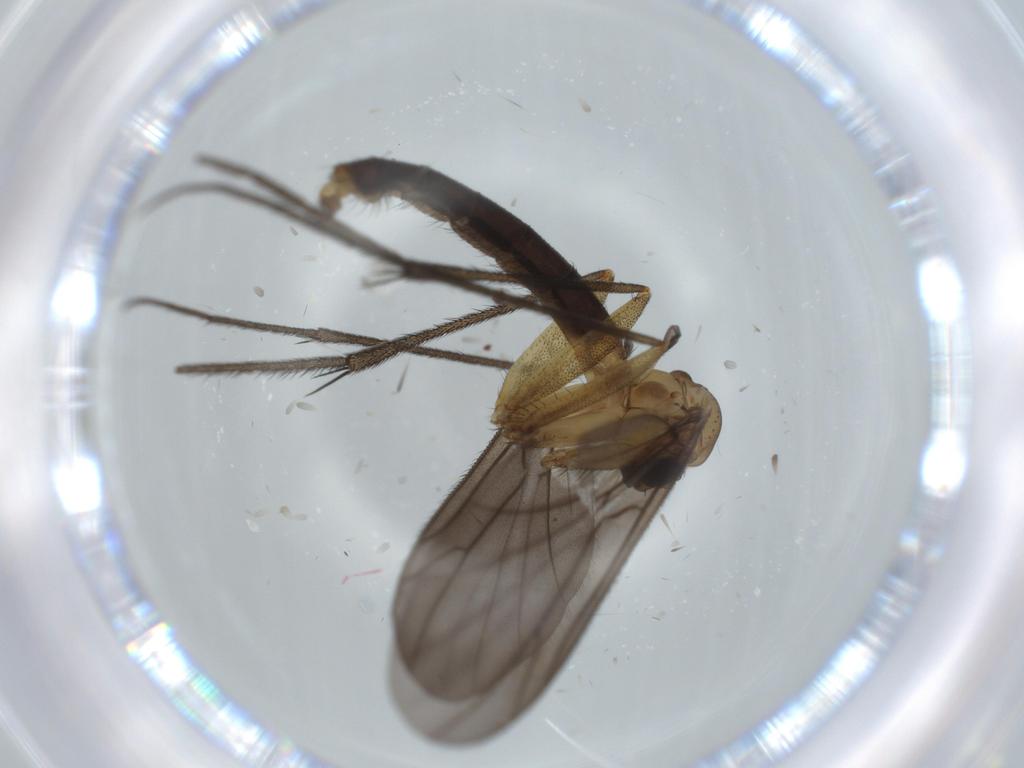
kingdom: Animalia
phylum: Arthropoda
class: Insecta
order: Diptera
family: Ditomyiidae
